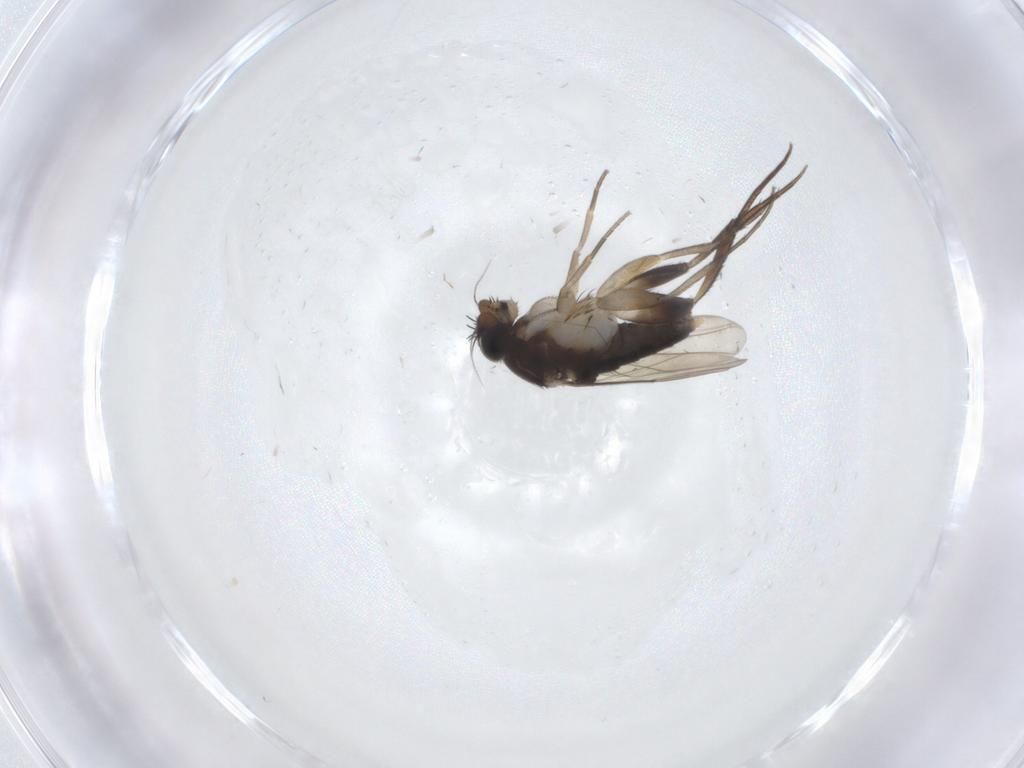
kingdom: Animalia
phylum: Arthropoda
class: Insecta
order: Diptera
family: Phoridae
